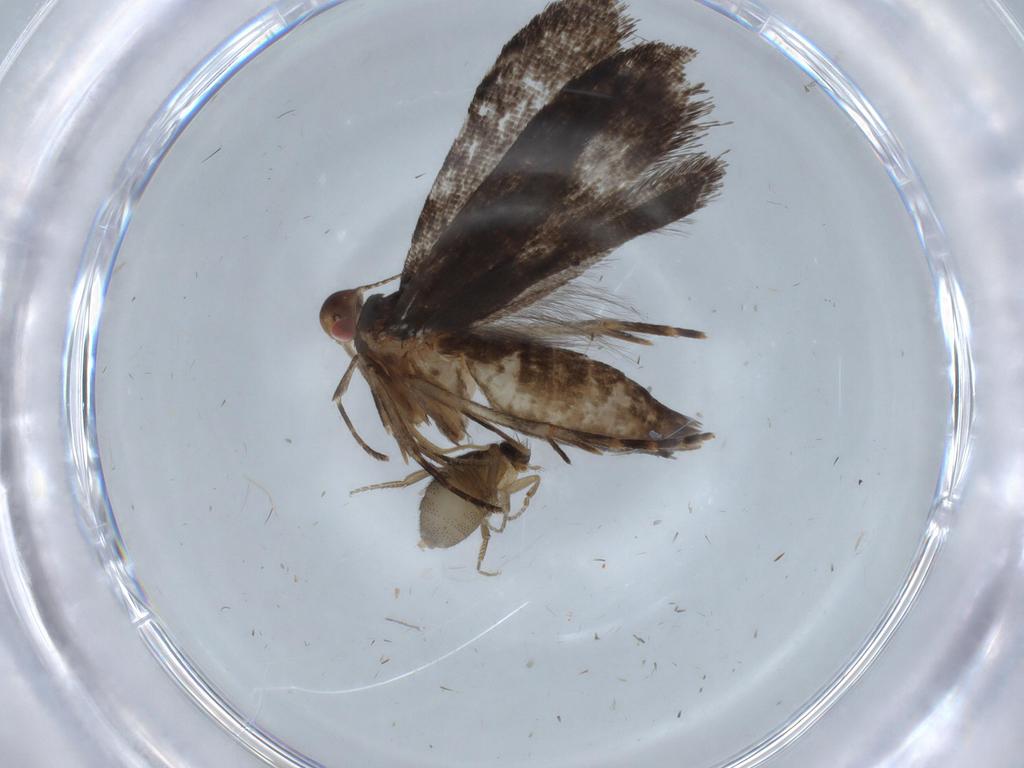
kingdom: Animalia
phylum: Arthropoda
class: Insecta
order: Lepidoptera
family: Gelechiidae
